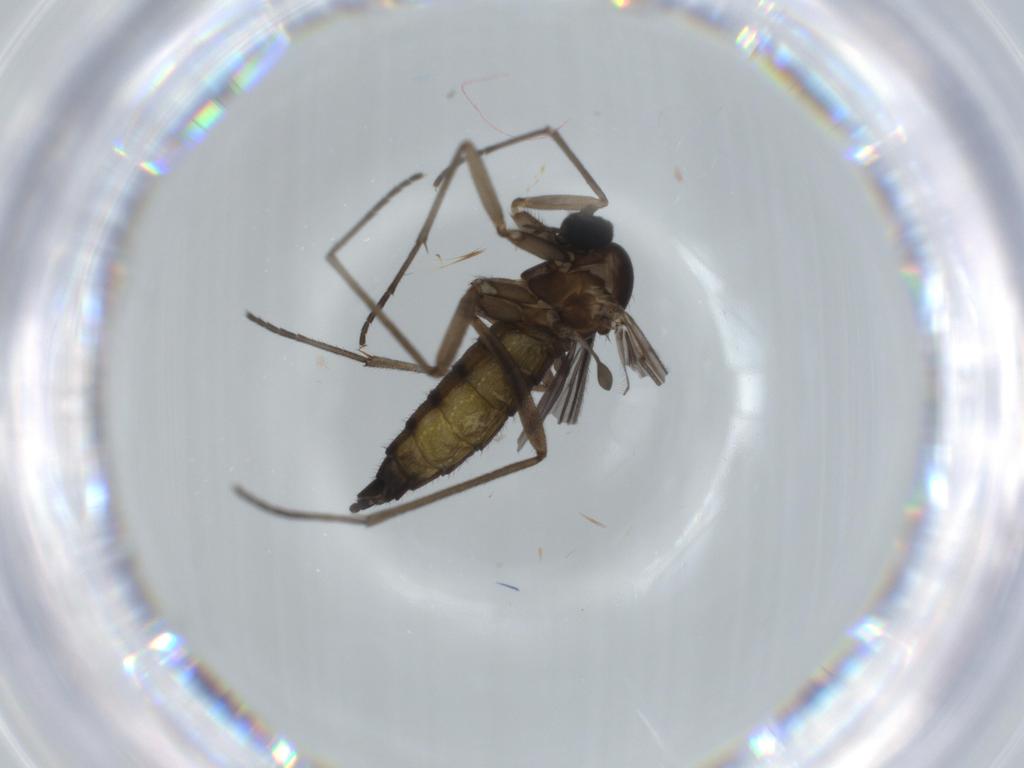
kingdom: Animalia
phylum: Arthropoda
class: Insecta
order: Diptera
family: Sciaridae
